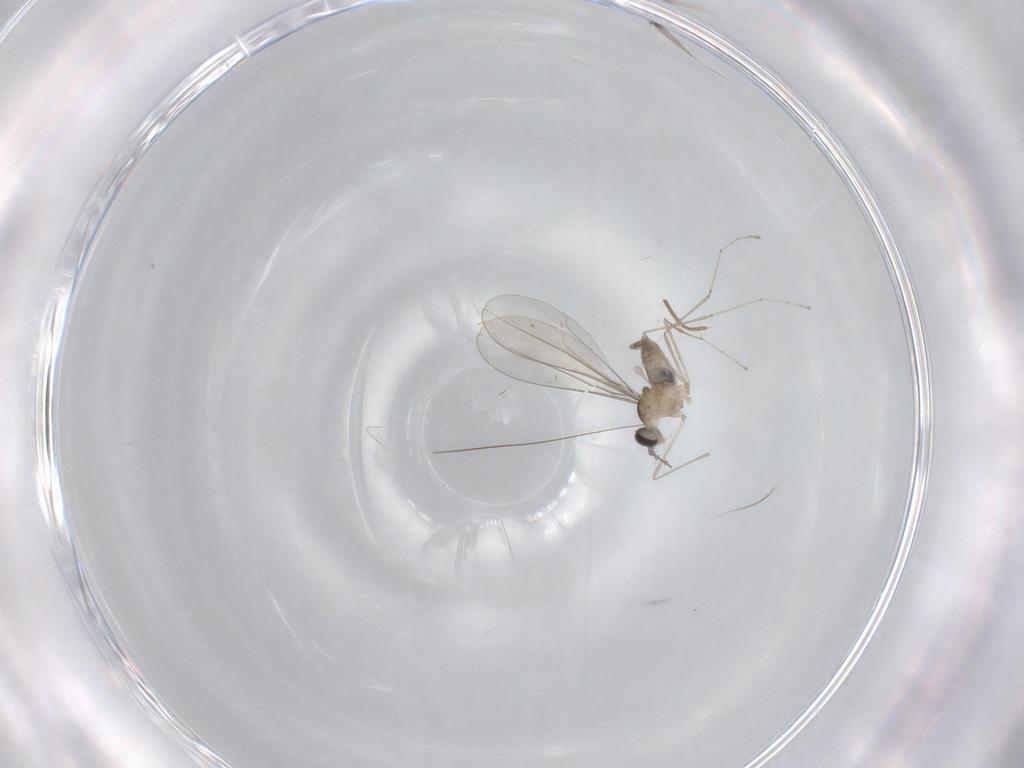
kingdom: Animalia
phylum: Arthropoda
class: Insecta
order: Diptera
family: Cecidomyiidae
